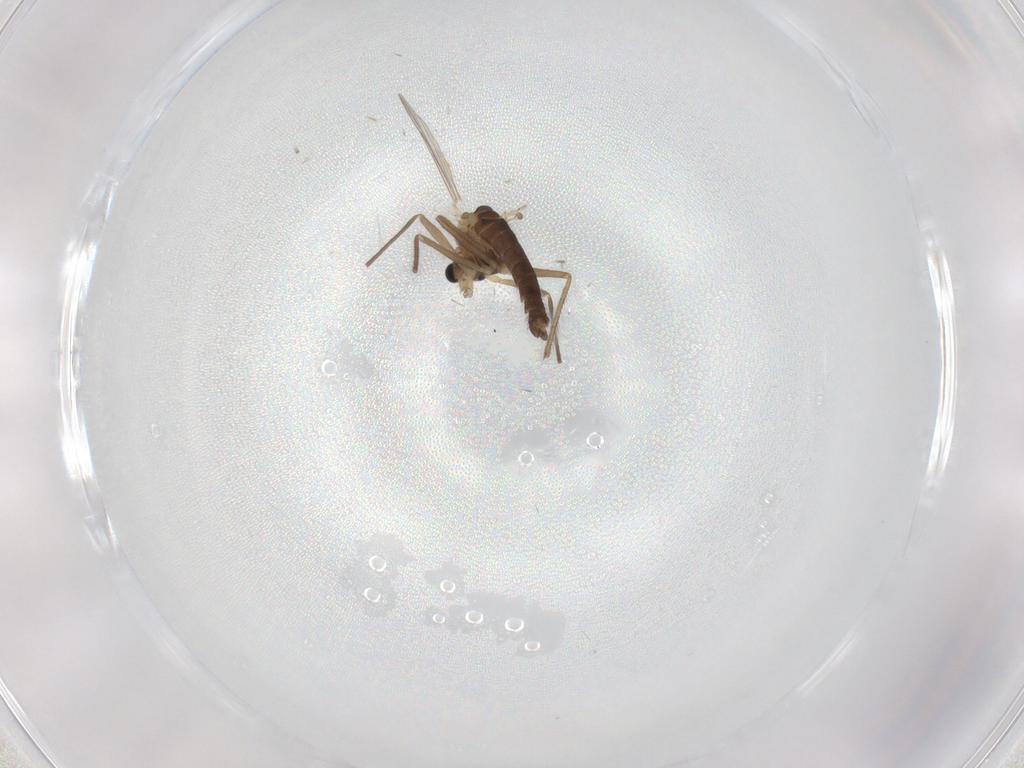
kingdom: Animalia
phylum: Arthropoda
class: Insecta
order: Diptera
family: Chironomidae
